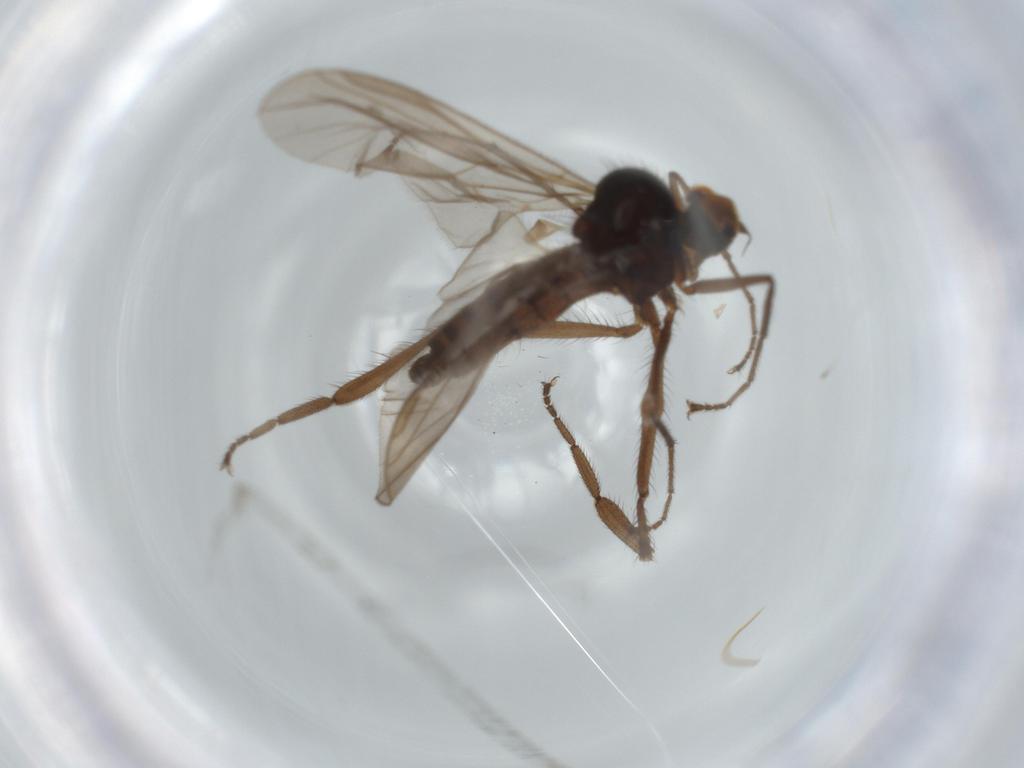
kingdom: Animalia
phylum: Arthropoda
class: Insecta
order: Diptera
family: Hybotidae
